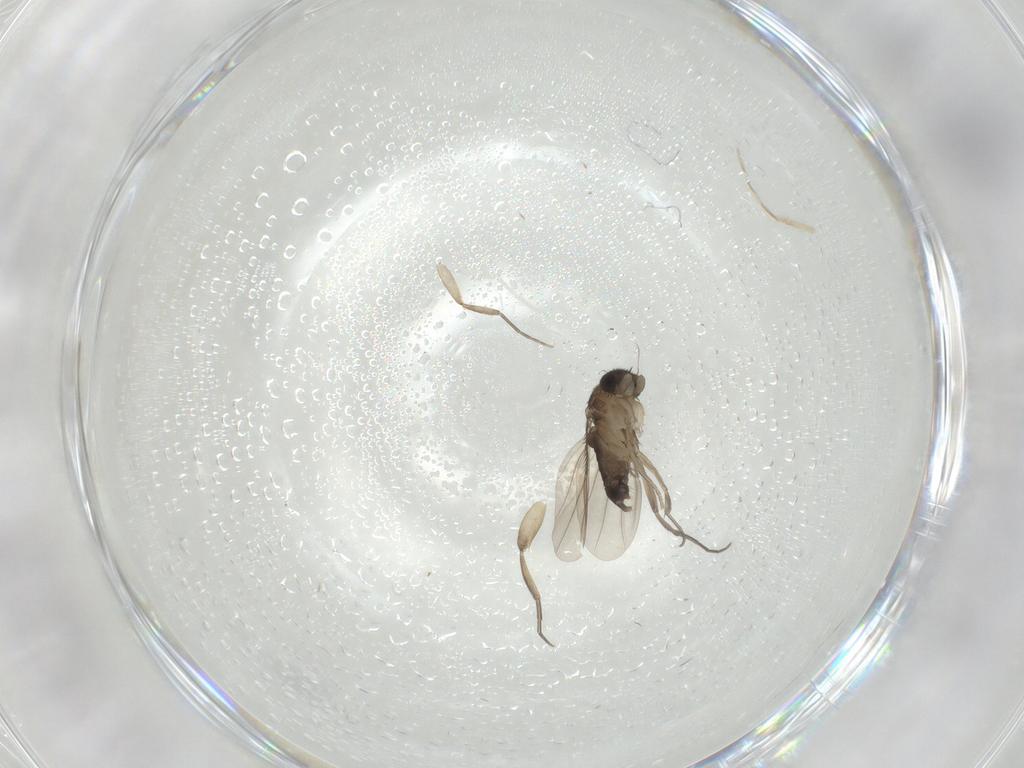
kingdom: Animalia
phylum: Arthropoda
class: Insecta
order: Diptera
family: Phoridae
